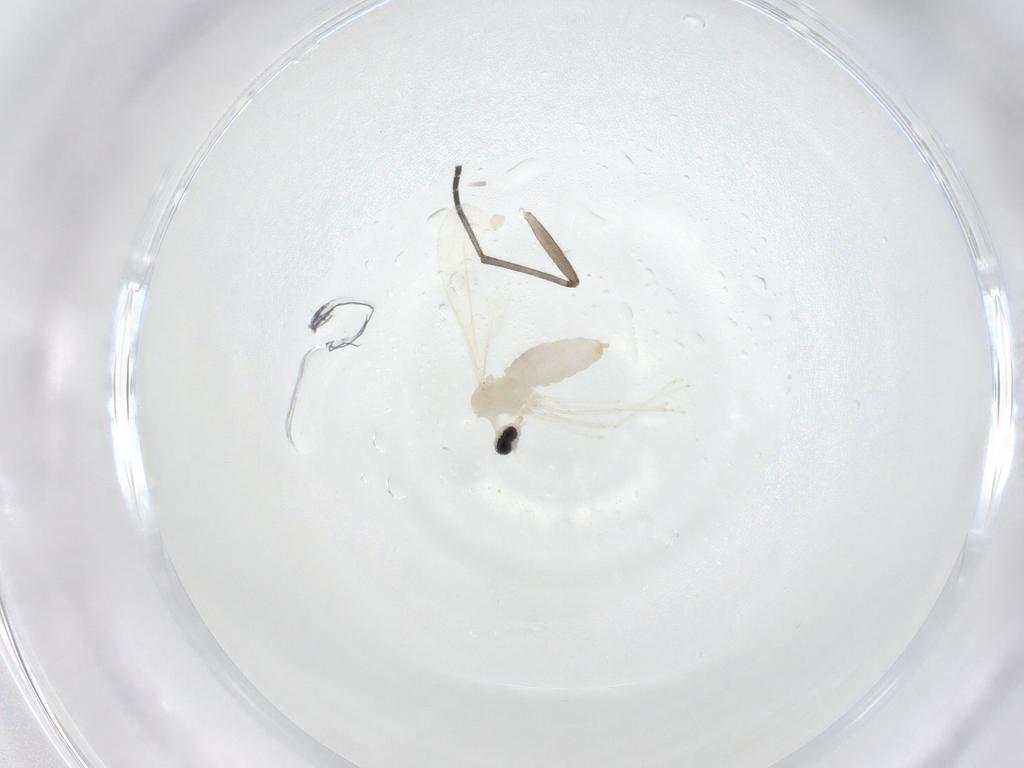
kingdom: Animalia
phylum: Arthropoda
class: Insecta
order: Diptera
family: Cecidomyiidae
